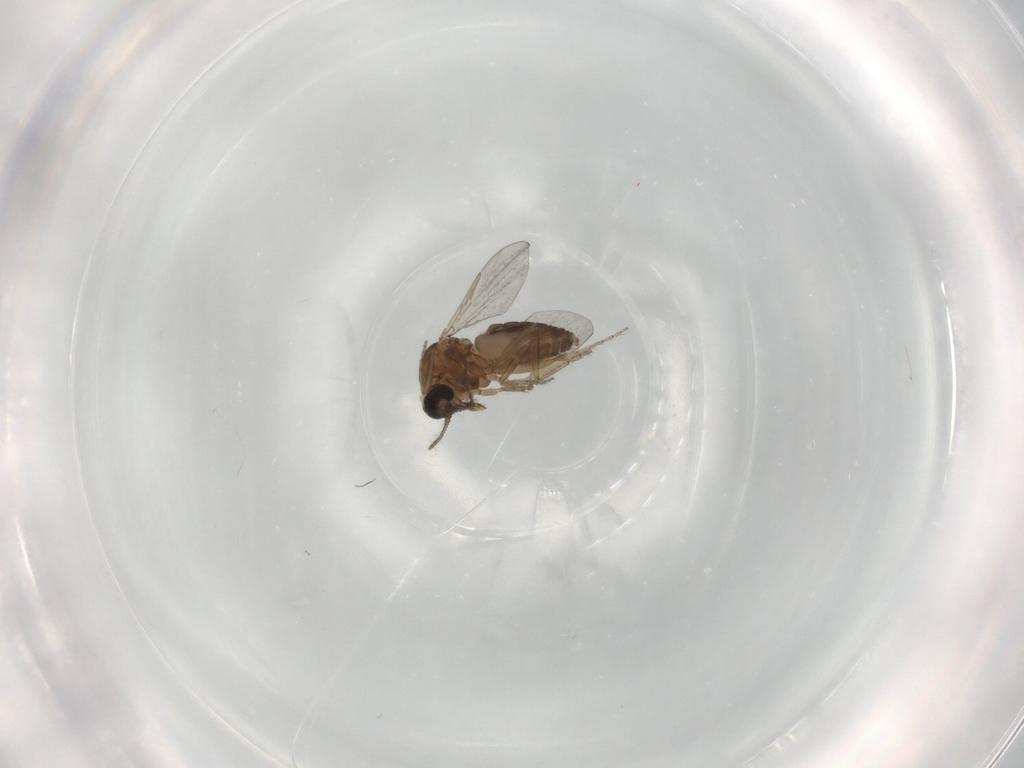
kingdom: Animalia
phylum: Arthropoda
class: Insecta
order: Diptera
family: Ceratopogonidae
